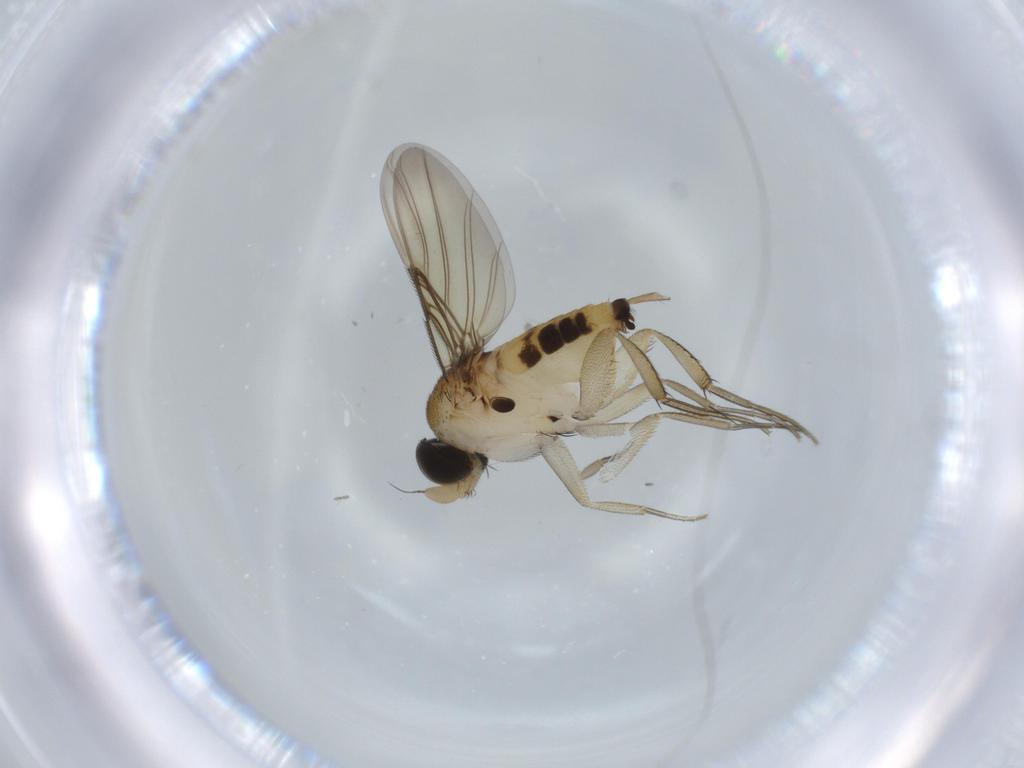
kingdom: Animalia
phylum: Arthropoda
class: Insecta
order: Diptera
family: Phoridae
